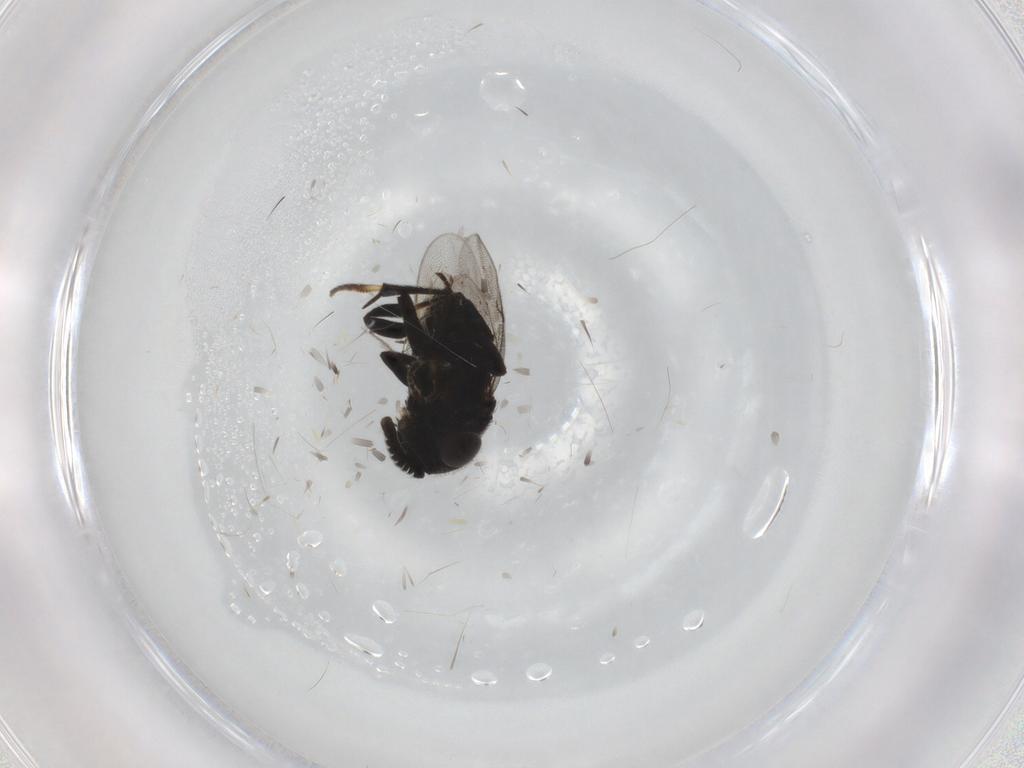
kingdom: Animalia
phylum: Arthropoda
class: Insecta
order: Hymenoptera
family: Encyrtidae
